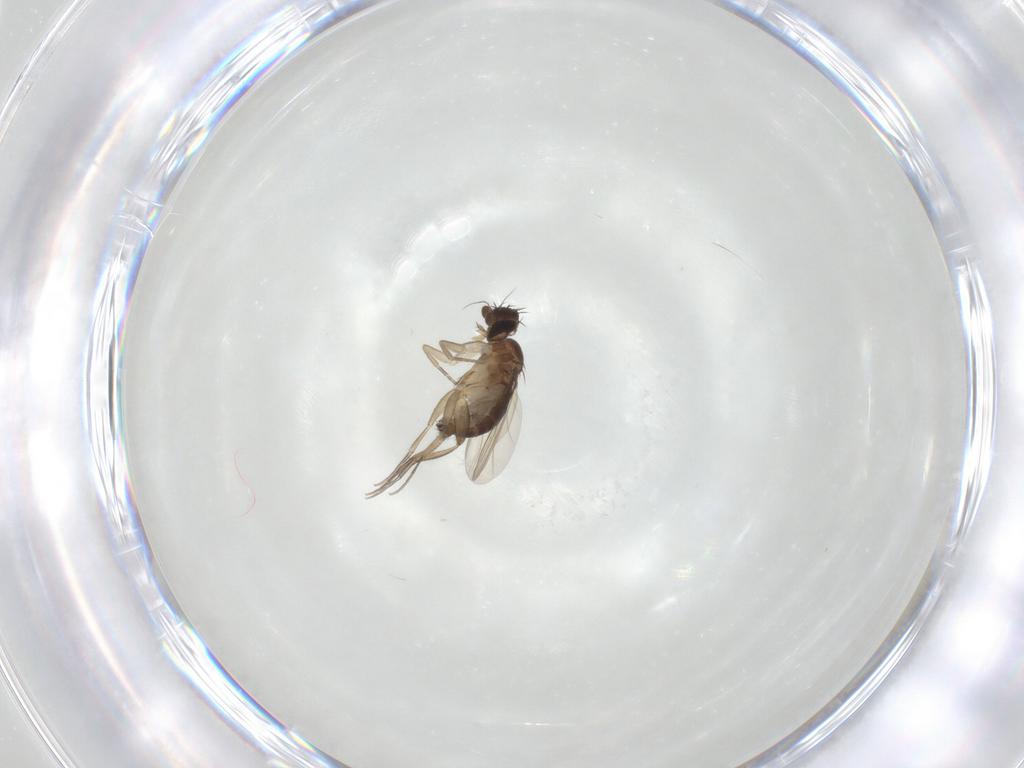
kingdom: Animalia
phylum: Arthropoda
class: Insecta
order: Diptera
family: Phoridae
